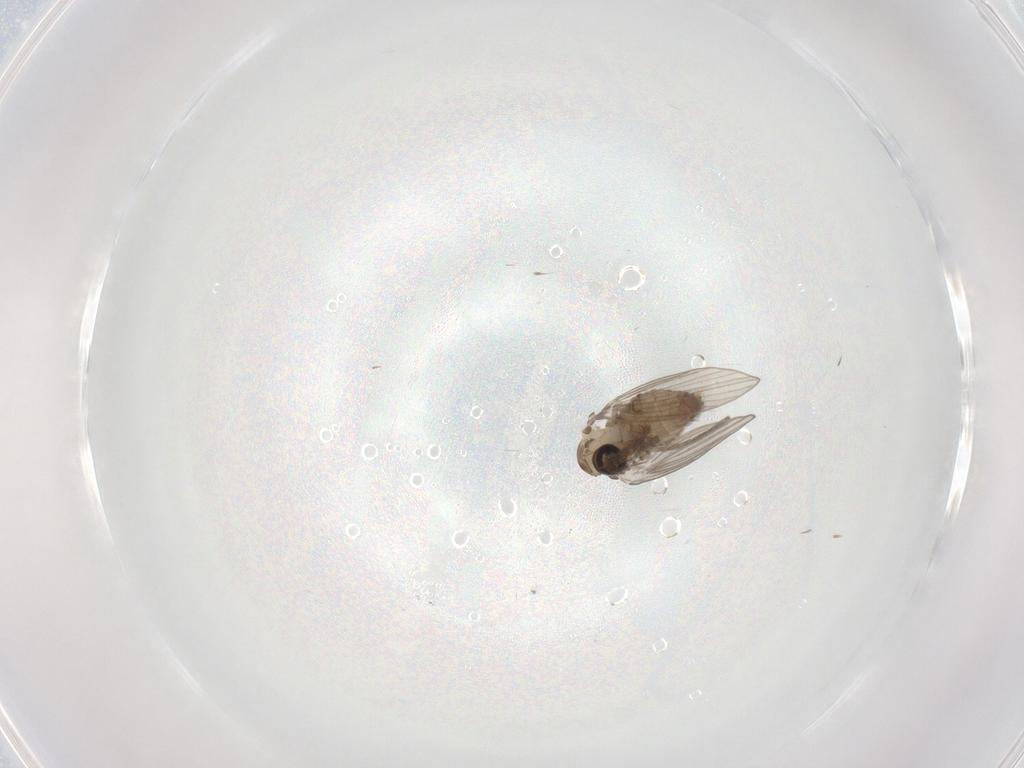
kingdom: Animalia
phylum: Arthropoda
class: Insecta
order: Diptera
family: Psychodidae
